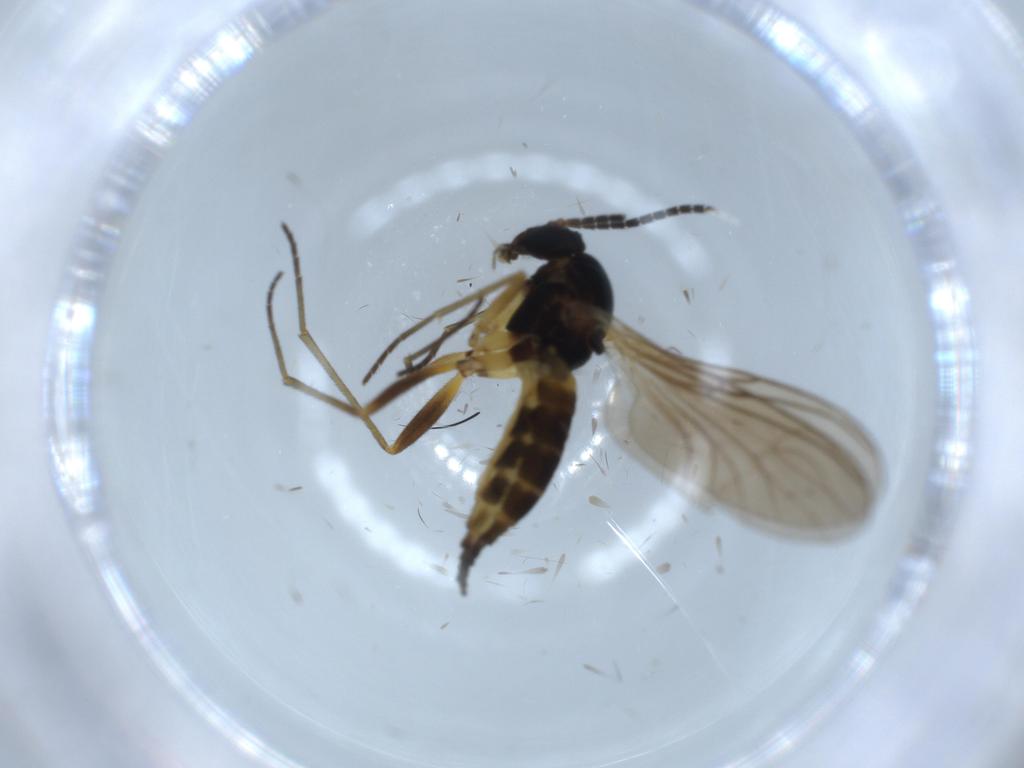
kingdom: Animalia
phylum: Arthropoda
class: Insecta
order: Diptera
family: Sciaridae
